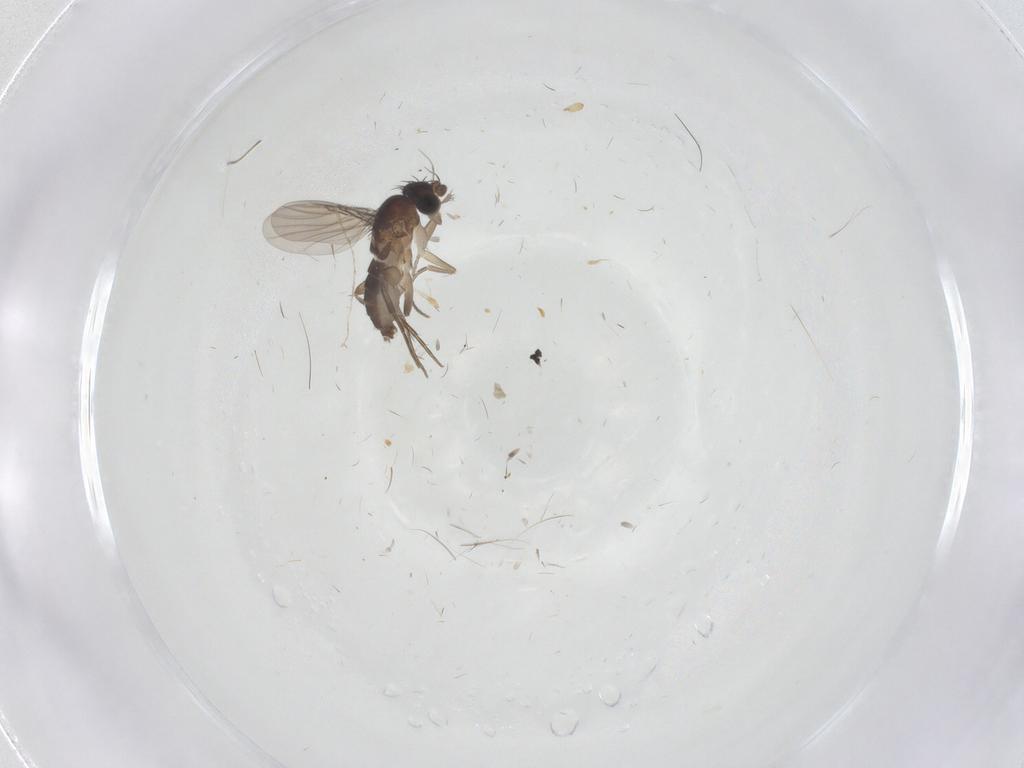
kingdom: Animalia
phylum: Arthropoda
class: Insecta
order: Diptera
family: Phoridae
